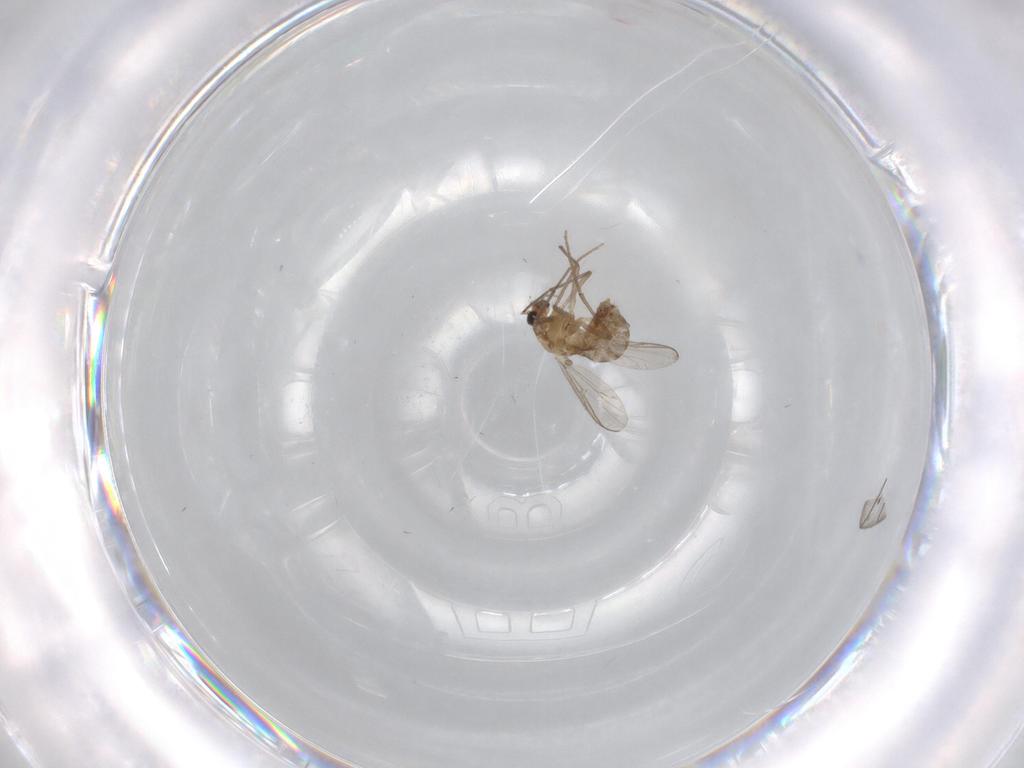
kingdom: Animalia
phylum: Arthropoda
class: Insecta
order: Diptera
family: Chironomidae
